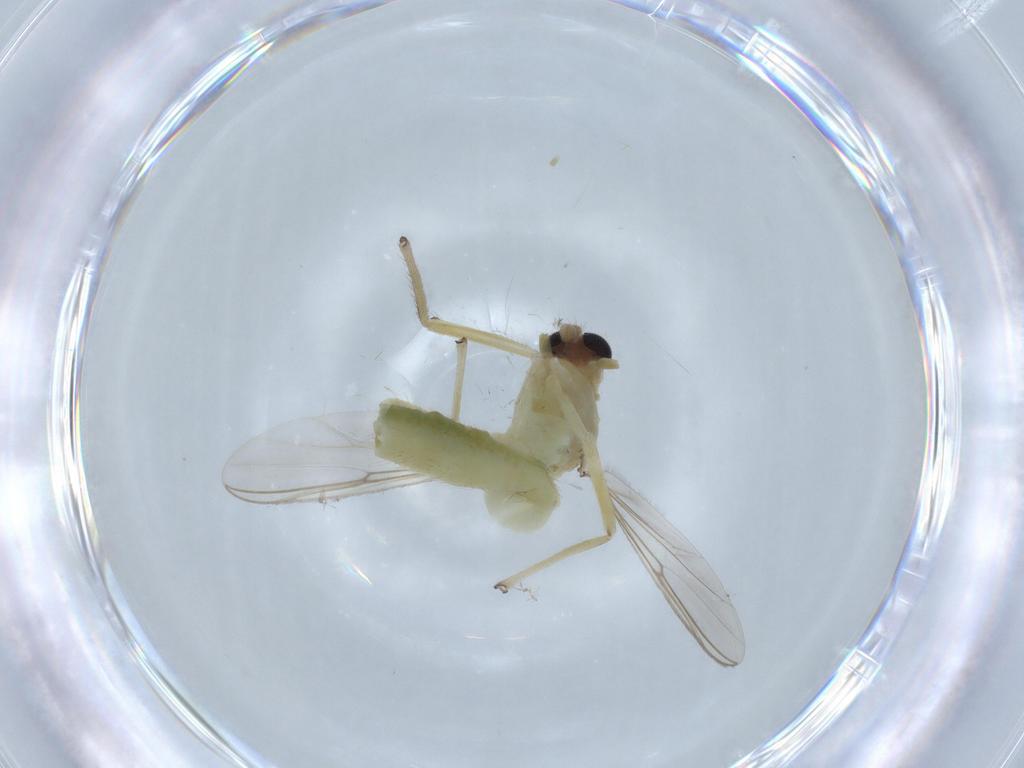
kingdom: Animalia
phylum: Arthropoda
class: Insecta
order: Diptera
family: Chironomidae
